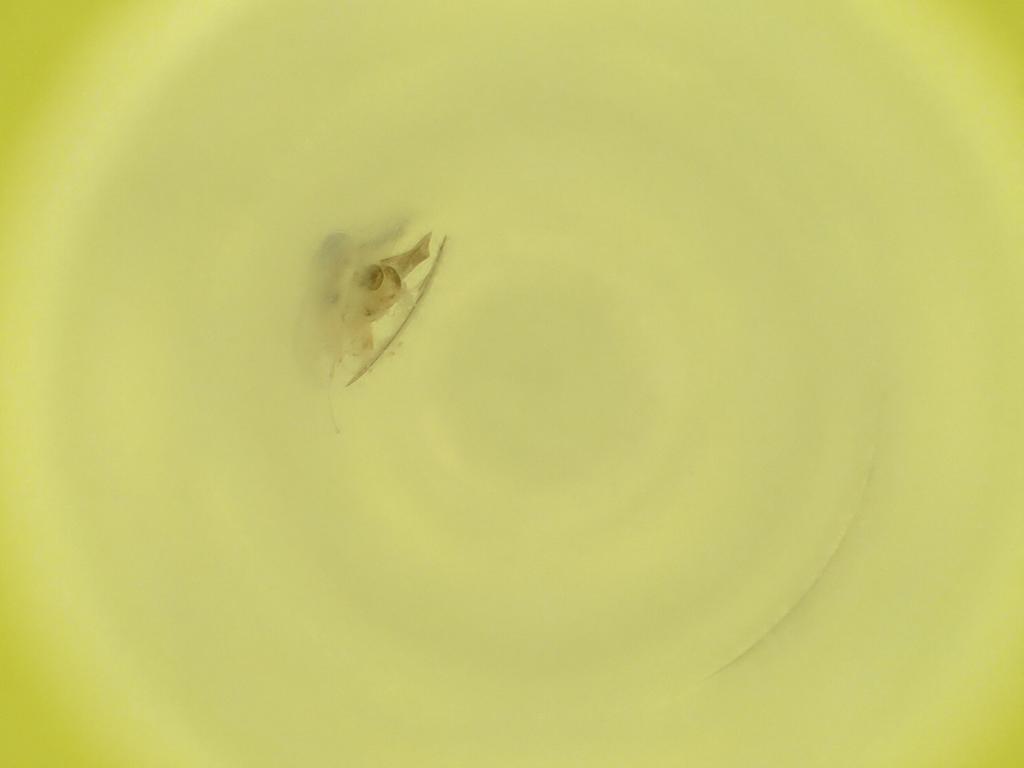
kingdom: Animalia
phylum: Arthropoda
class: Insecta
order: Diptera
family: Cecidomyiidae
